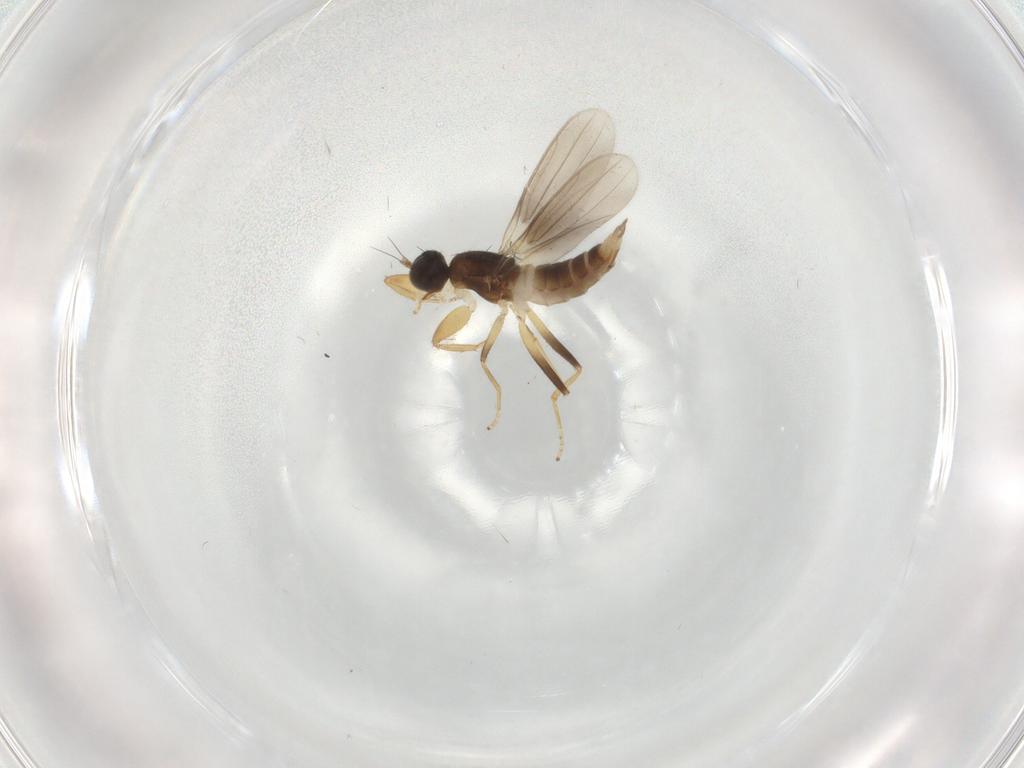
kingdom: Animalia
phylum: Arthropoda
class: Insecta
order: Diptera
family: Hybotidae
